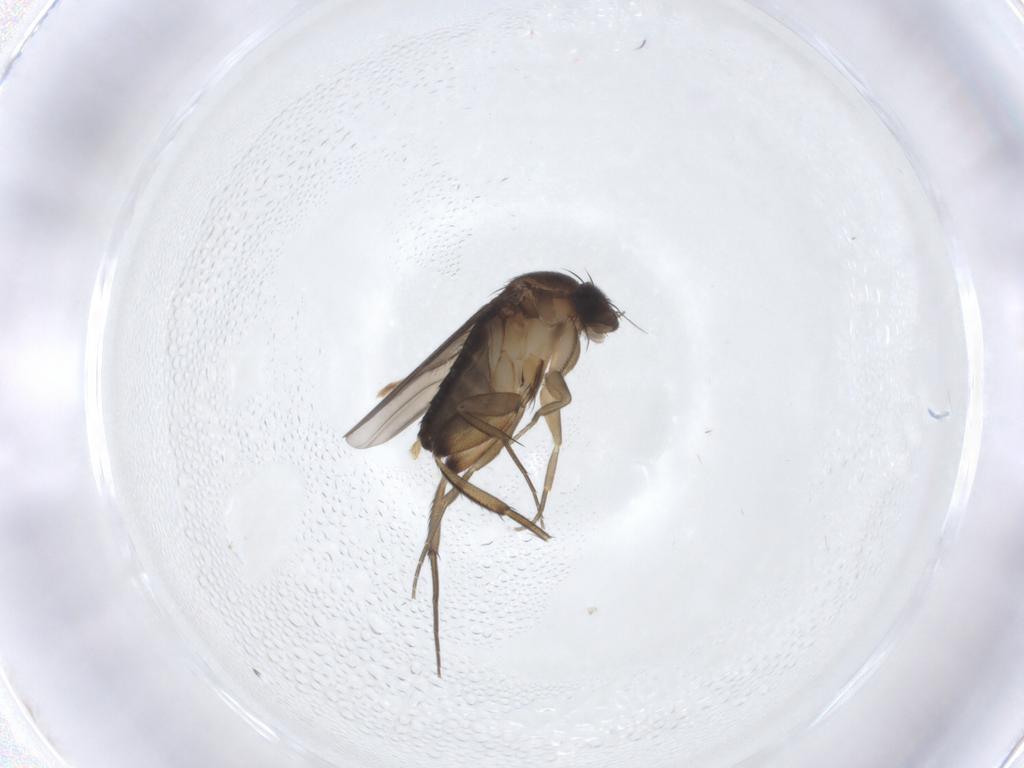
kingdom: Animalia
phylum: Arthropoda
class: Insecta
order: Diptera
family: Phoridae
